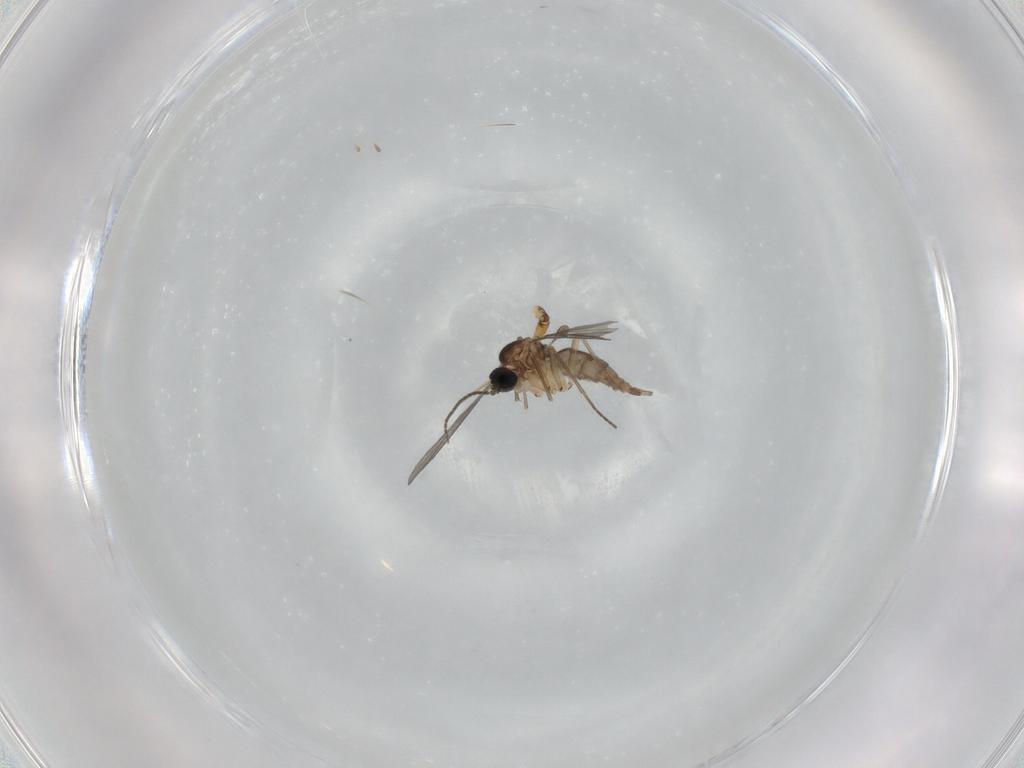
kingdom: Animalia
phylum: Arthropoda
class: Insecta
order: Diptera
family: Sciaridae
